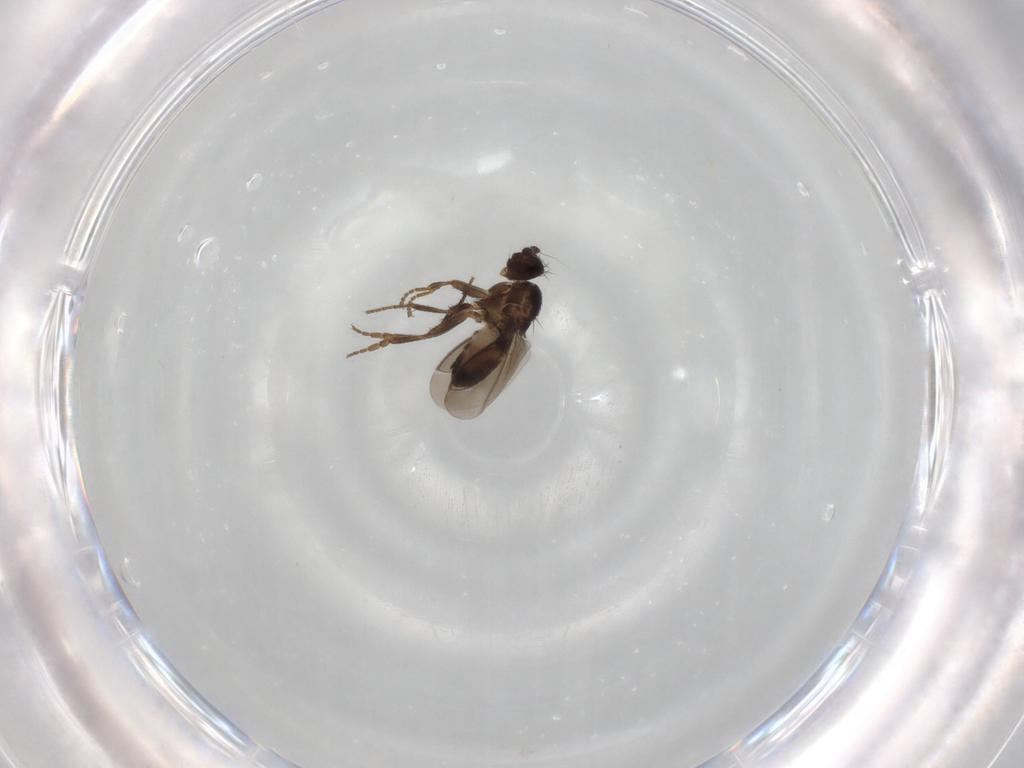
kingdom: Animalia
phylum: Arthropoda
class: Insecta
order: Diptera
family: Sphaeroceridae
